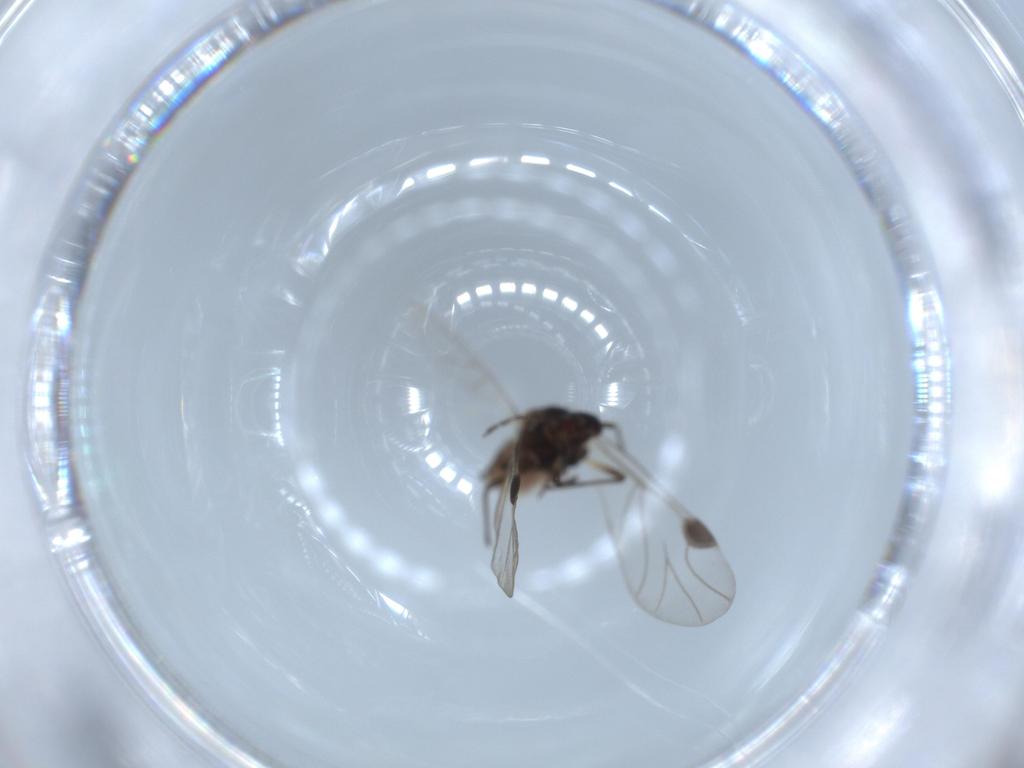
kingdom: Animalia
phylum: Arthropoda
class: Insecta
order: Hemiptera
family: Aphididae
